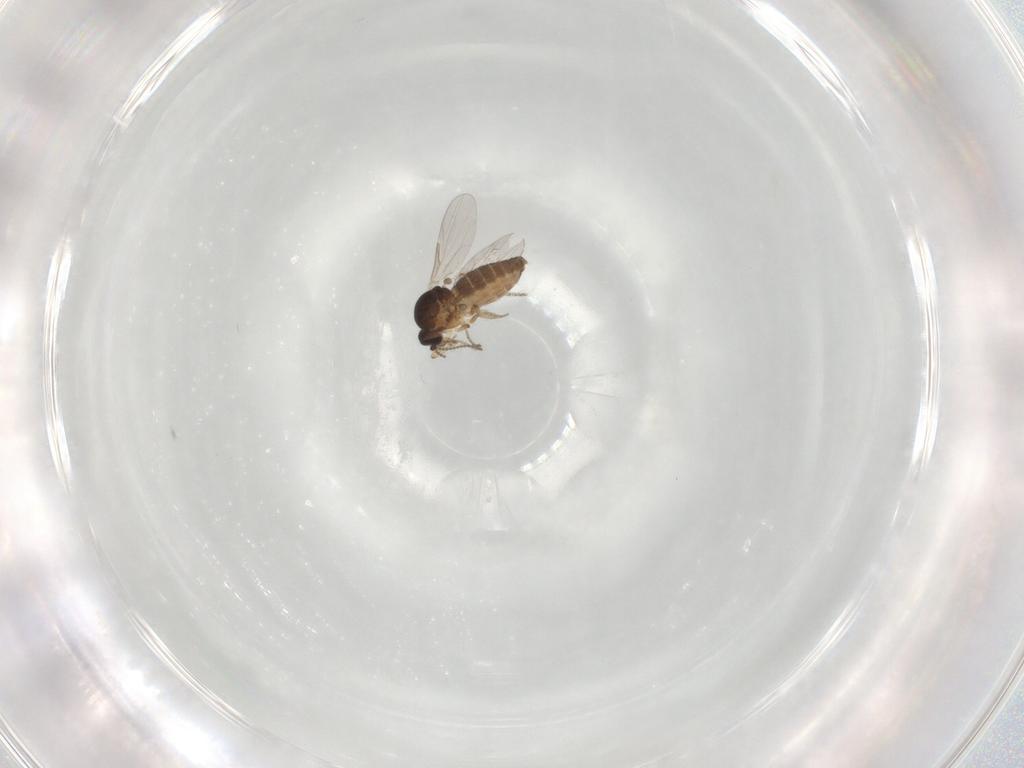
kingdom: Animalia
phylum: Arthropoda
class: Insecta
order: Diptera
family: Ceratopogonidae
